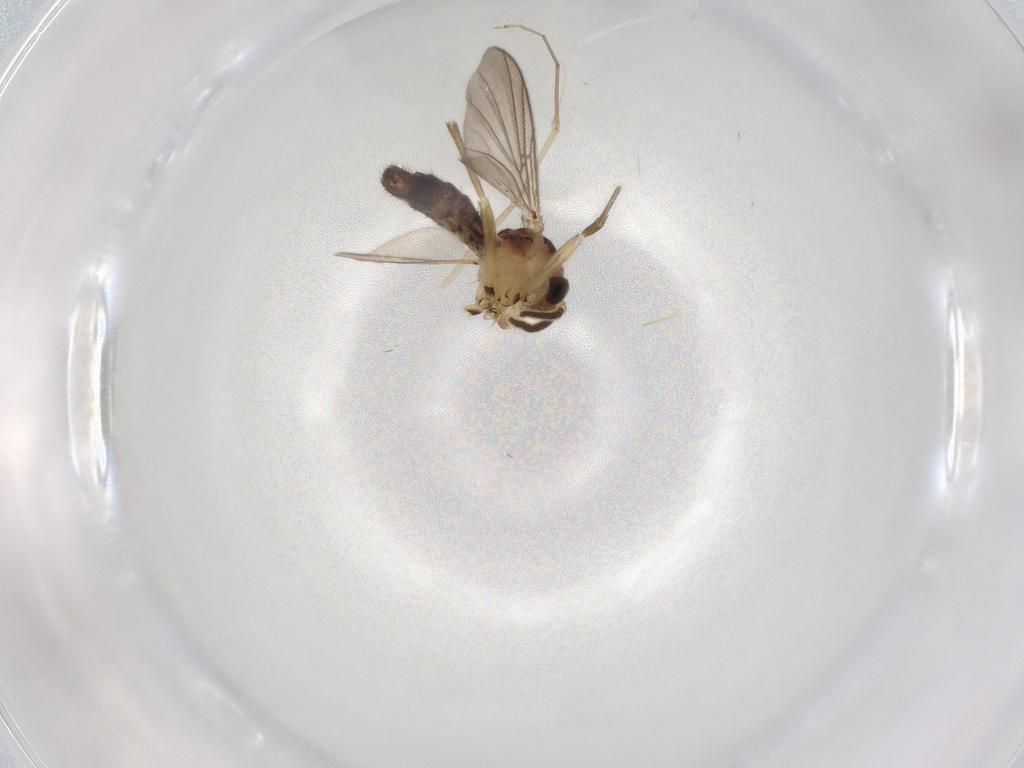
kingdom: Animalia
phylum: Arthropoda
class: Insecta
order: Diptera
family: Mycetophilidae
